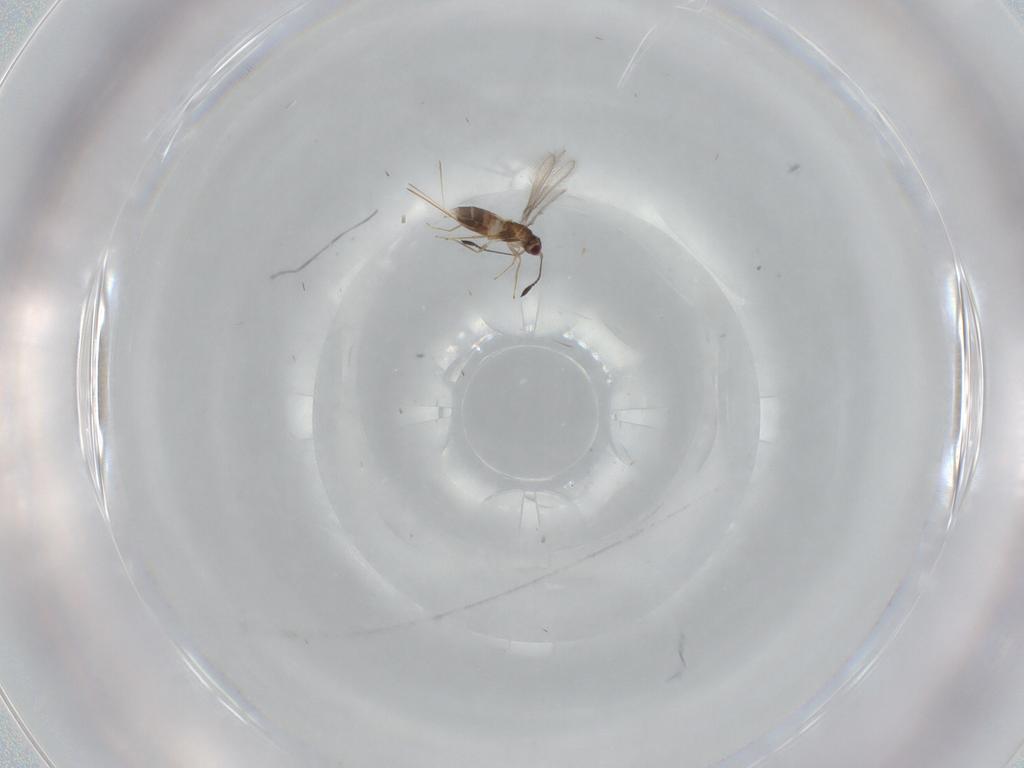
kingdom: Animalia
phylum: Arthropoda
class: Insecta
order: Hymenoptera
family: Mymaridae
